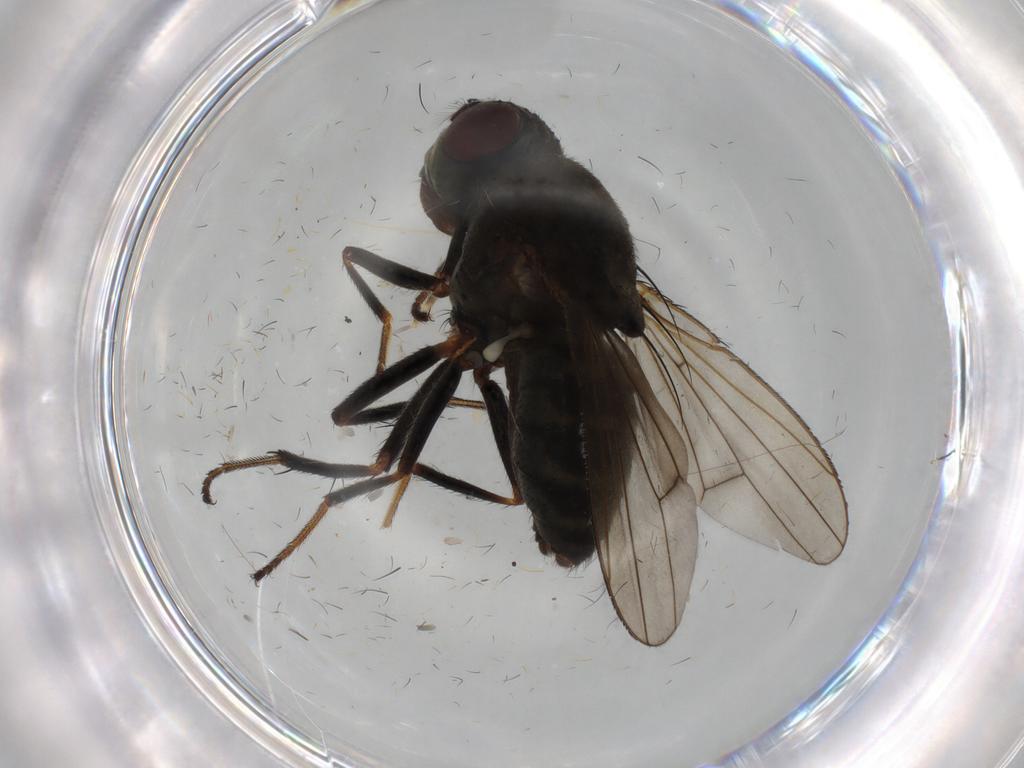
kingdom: Animalia
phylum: Arthropoda
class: Insecta
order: Diptera
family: Ephydridae
